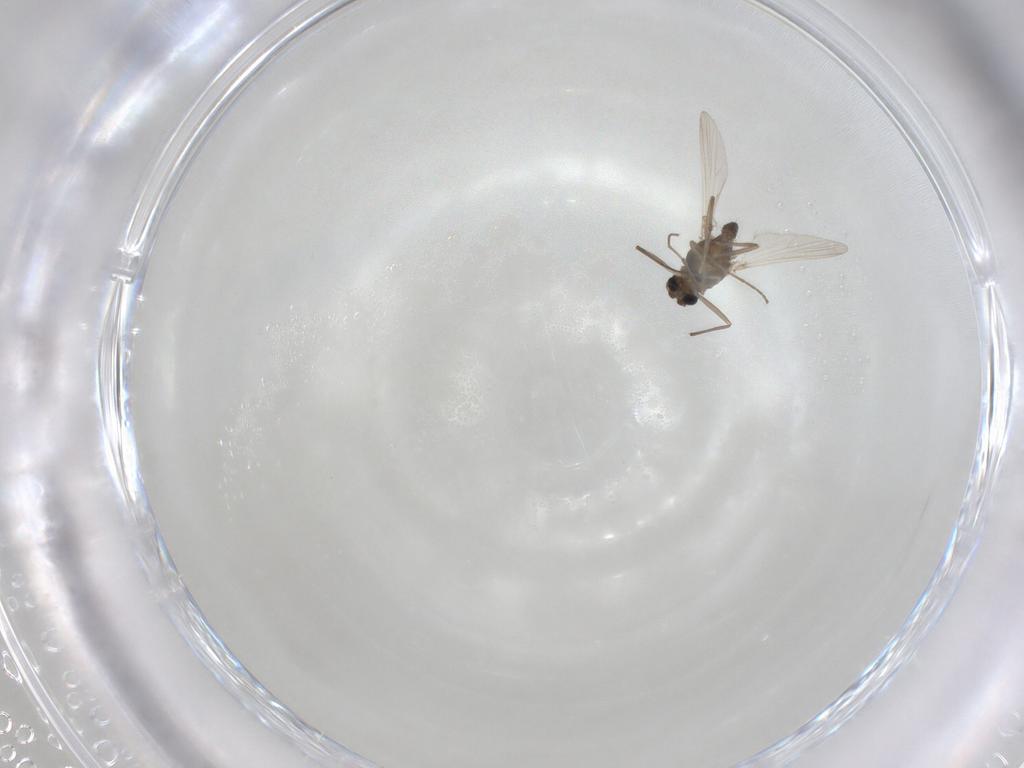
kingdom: Animalia
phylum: Arthropoda
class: Insecta
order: Diptera
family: Chironomidae
